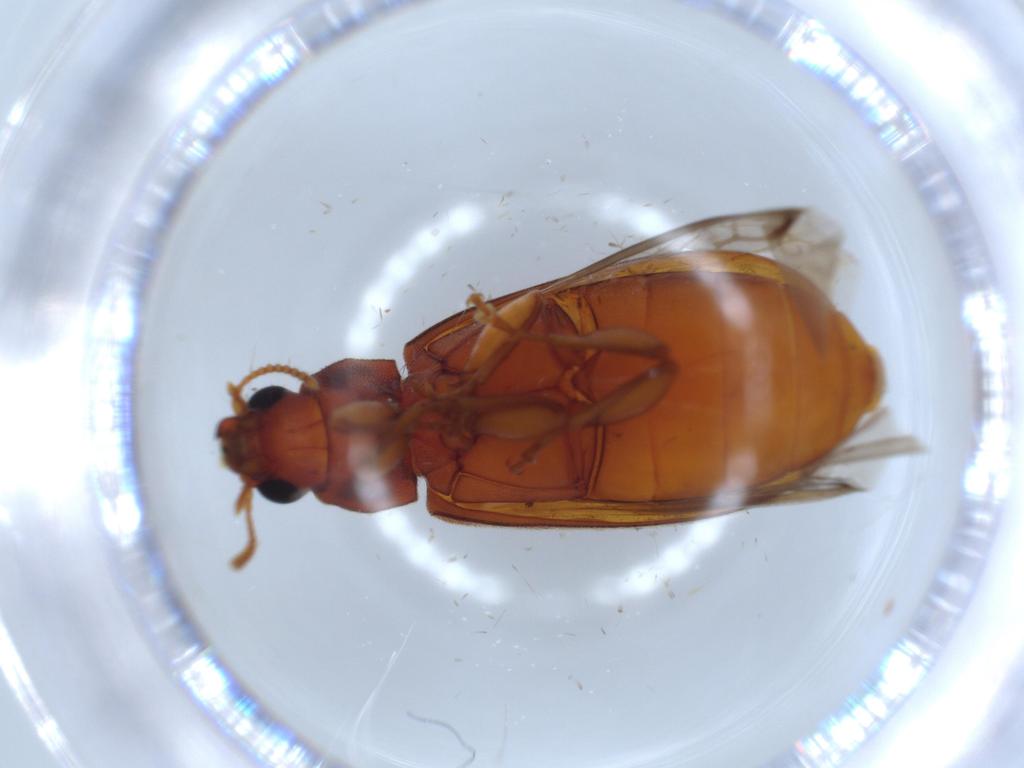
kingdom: Animalia
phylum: Arthropoda
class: Insecta
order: Coleoptera
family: Mycteridae
